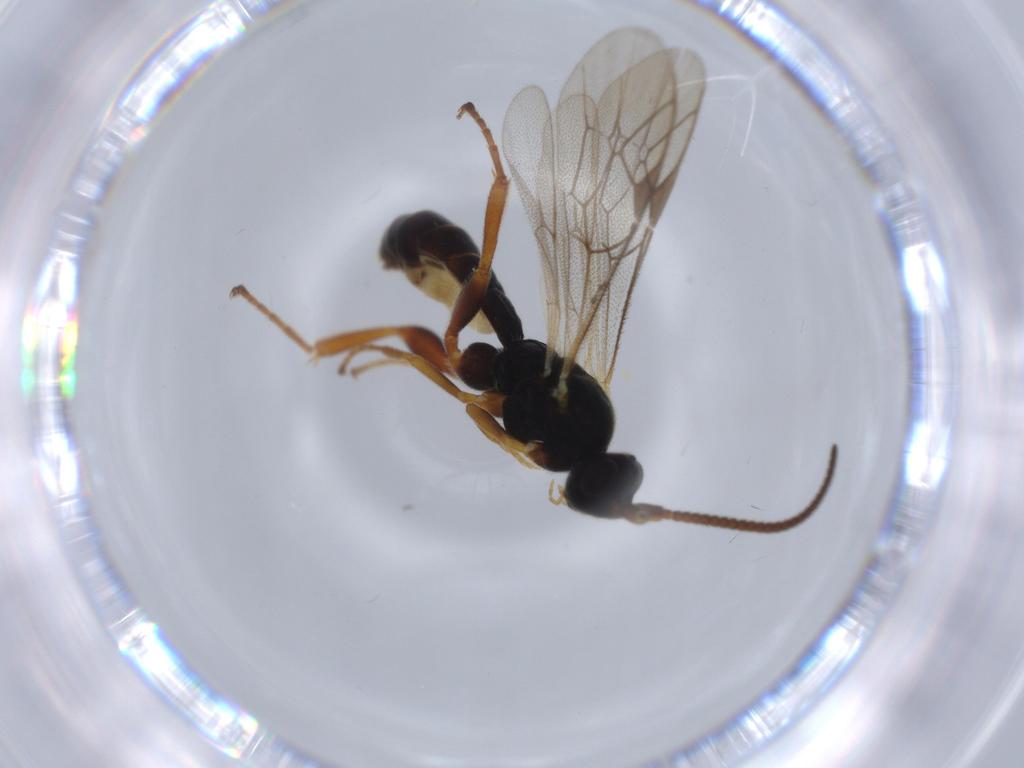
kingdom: Animalia
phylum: Arthropoda
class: Insecta
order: Hymenoptera
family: Ichneumonidae
